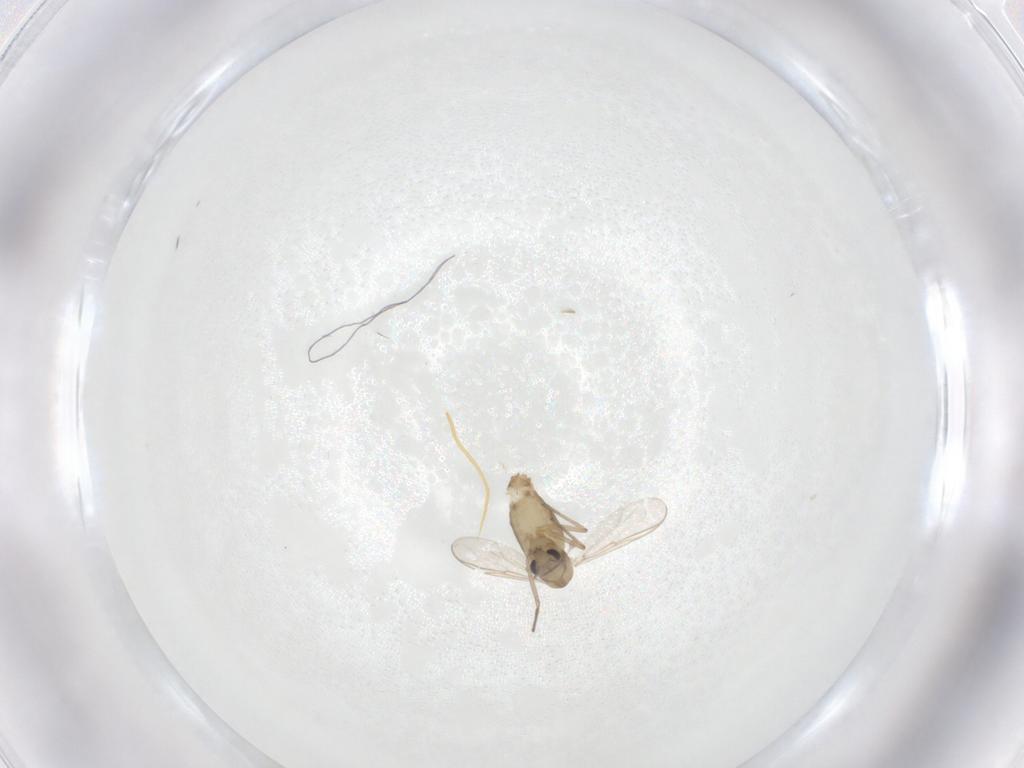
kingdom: Animalia
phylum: Arthropoda
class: Insecta
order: Diptera
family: Chironomidae
